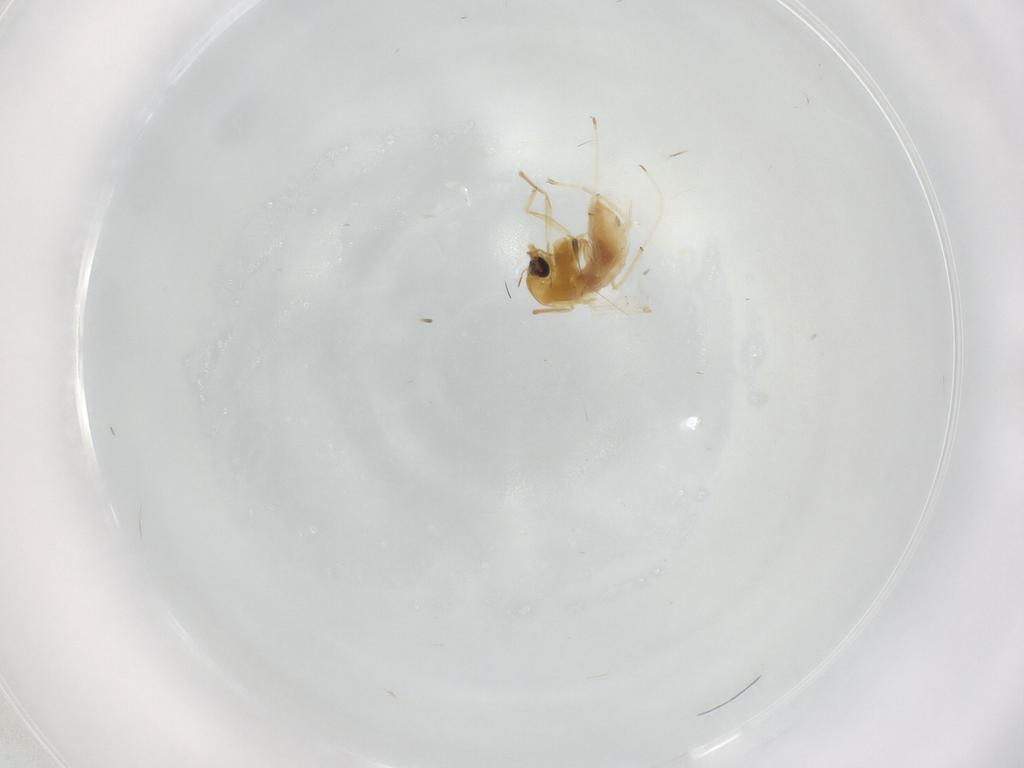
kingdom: Animalia
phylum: Arthropoda
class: Insecta
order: Diptera
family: Chironomidae
